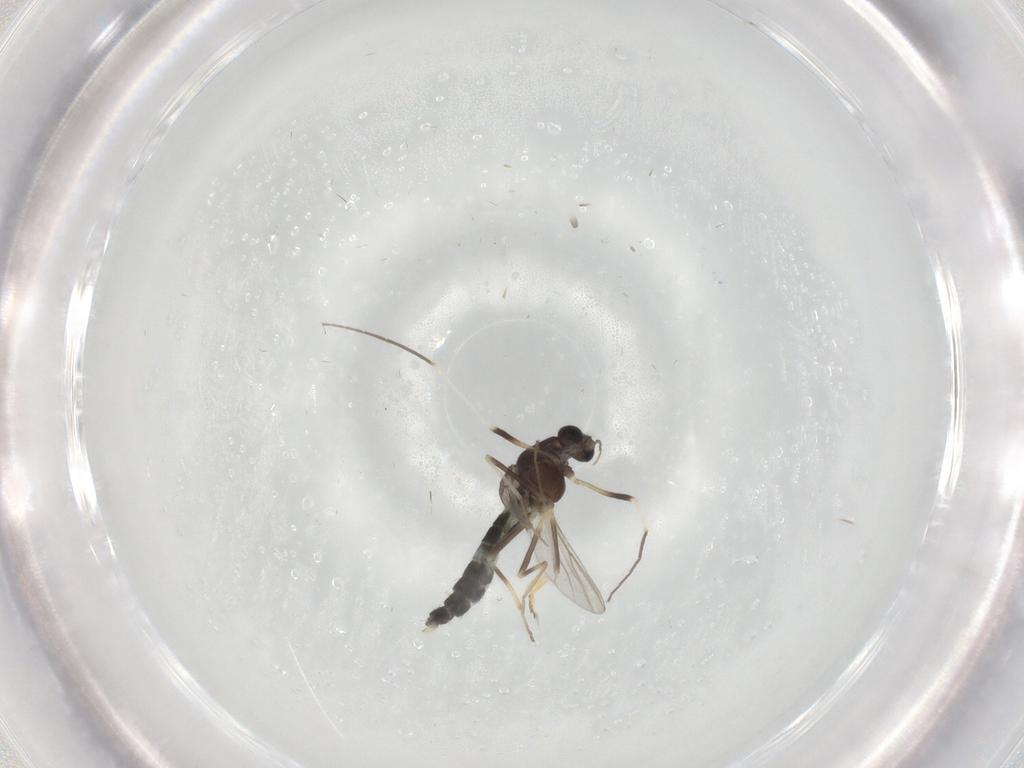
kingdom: Animalia
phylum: Arthropoda
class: Insecta
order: Diptera
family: Chironomidae
